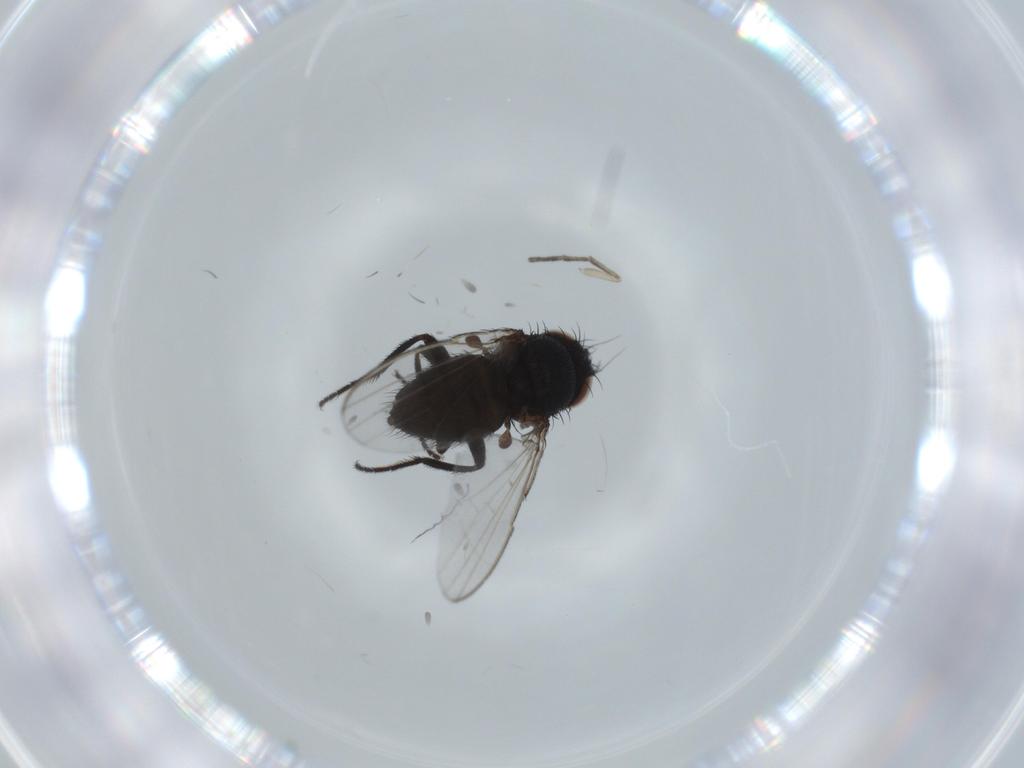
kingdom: Animalia
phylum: Arthropoda
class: Insecta
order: Diptera
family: Milichiidae
